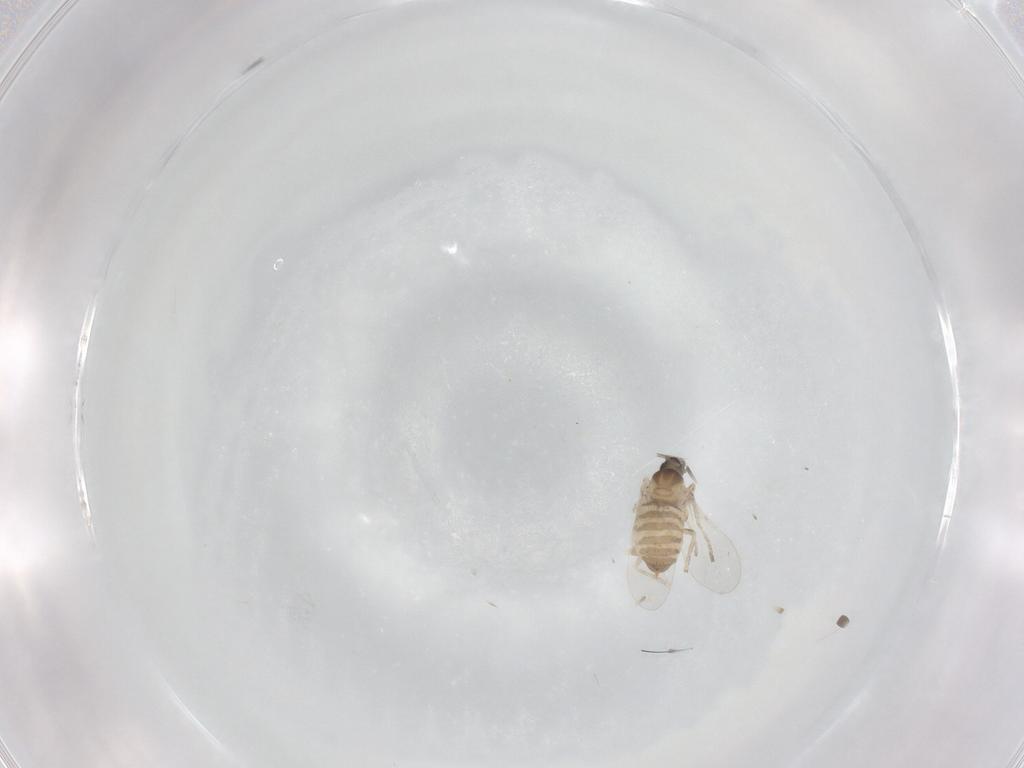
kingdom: Animalia
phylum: Arthropoda
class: Insecta
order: Diptera
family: Cecidomyiidae
